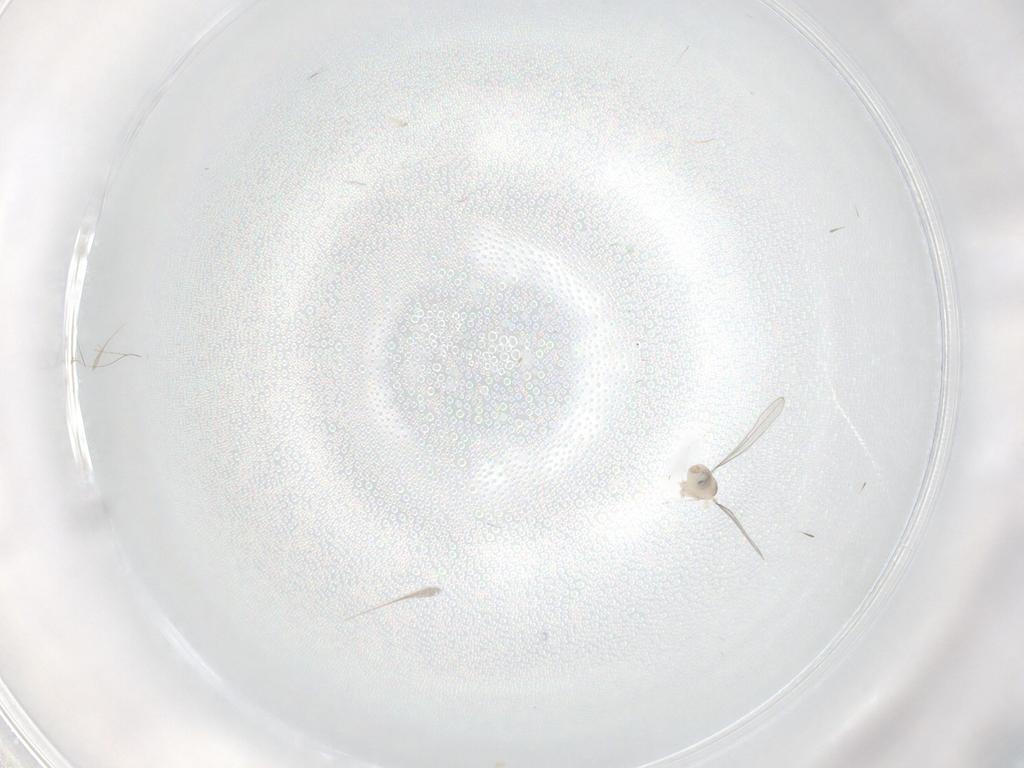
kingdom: Animalia
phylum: Arthropoda
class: Insecta
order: Diptera
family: Cecidomyiidae
